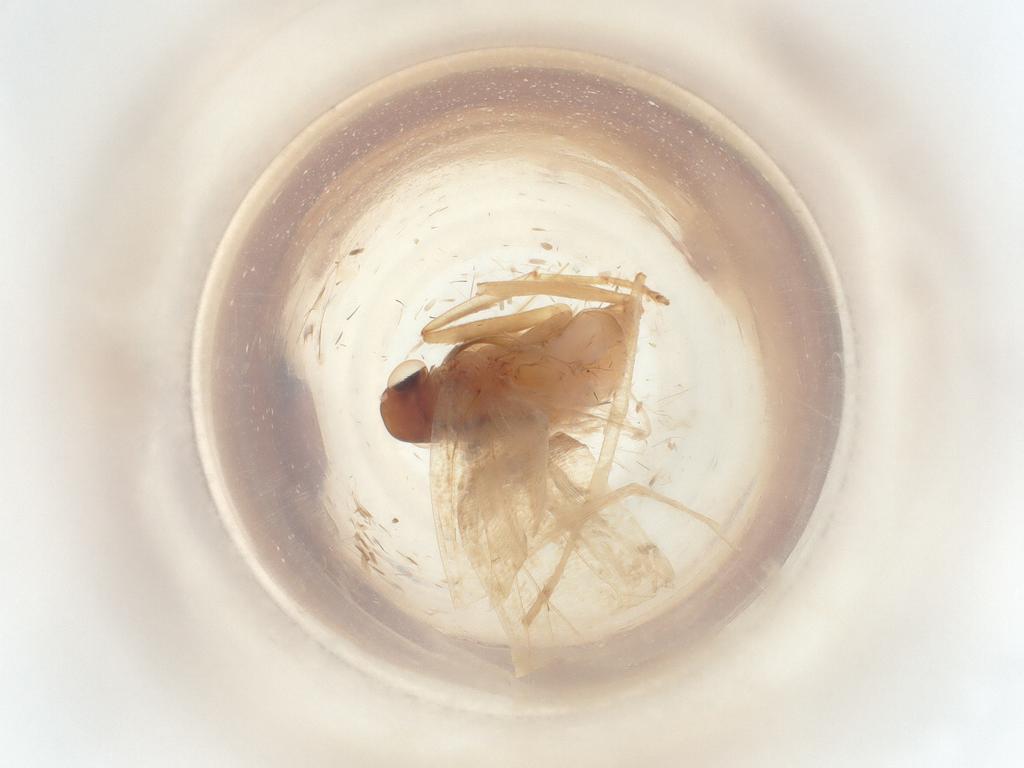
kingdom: Animalia
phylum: Arthropoda
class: Insecta
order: Lepidoptera
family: Gelechiidae
